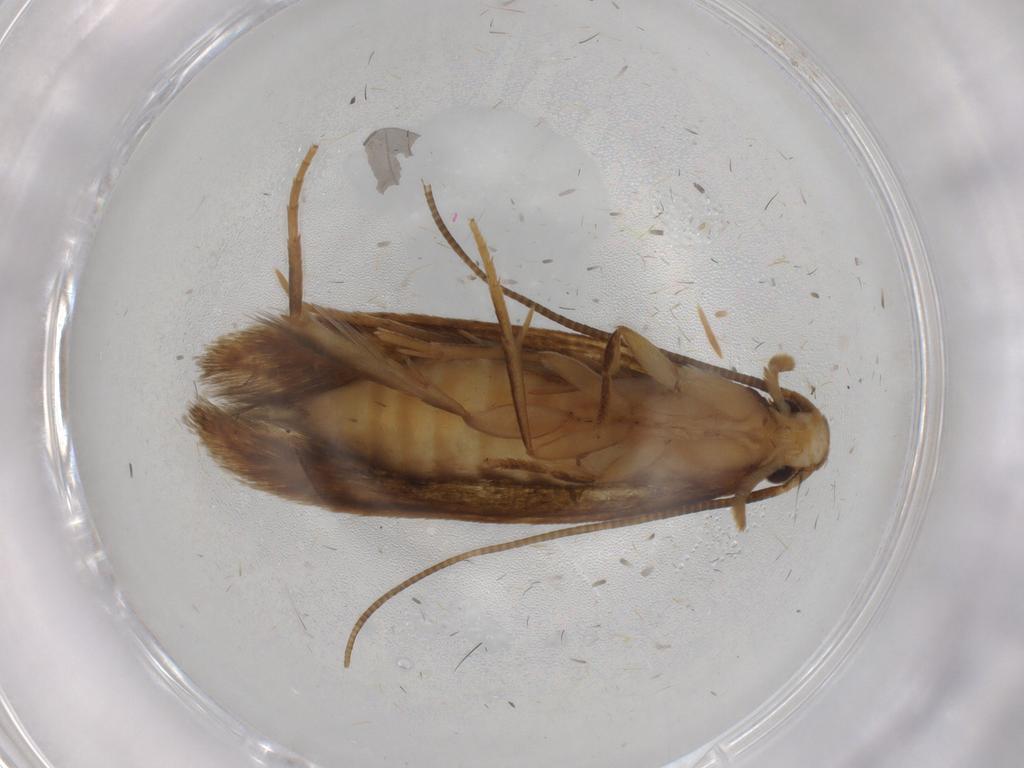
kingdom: Animalia
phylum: Arthropoda
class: Insecta
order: Lepidoptera
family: Tineidae
